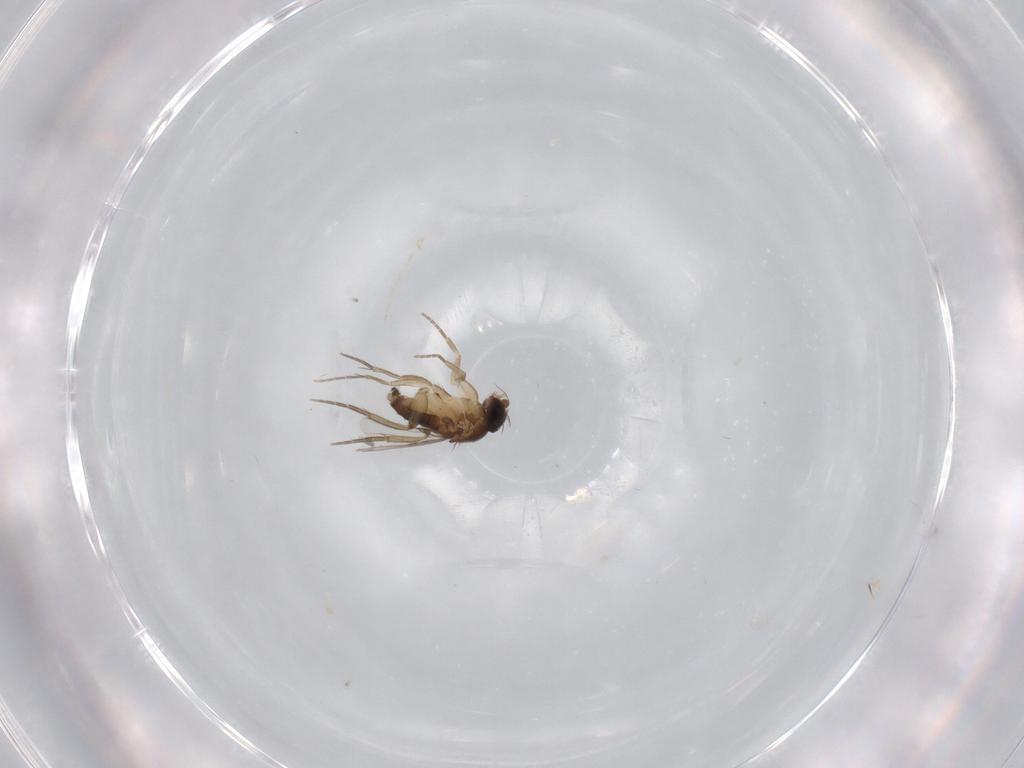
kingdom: Animalia
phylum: Arthropoda
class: Insecta
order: Diptera
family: Phoridae
